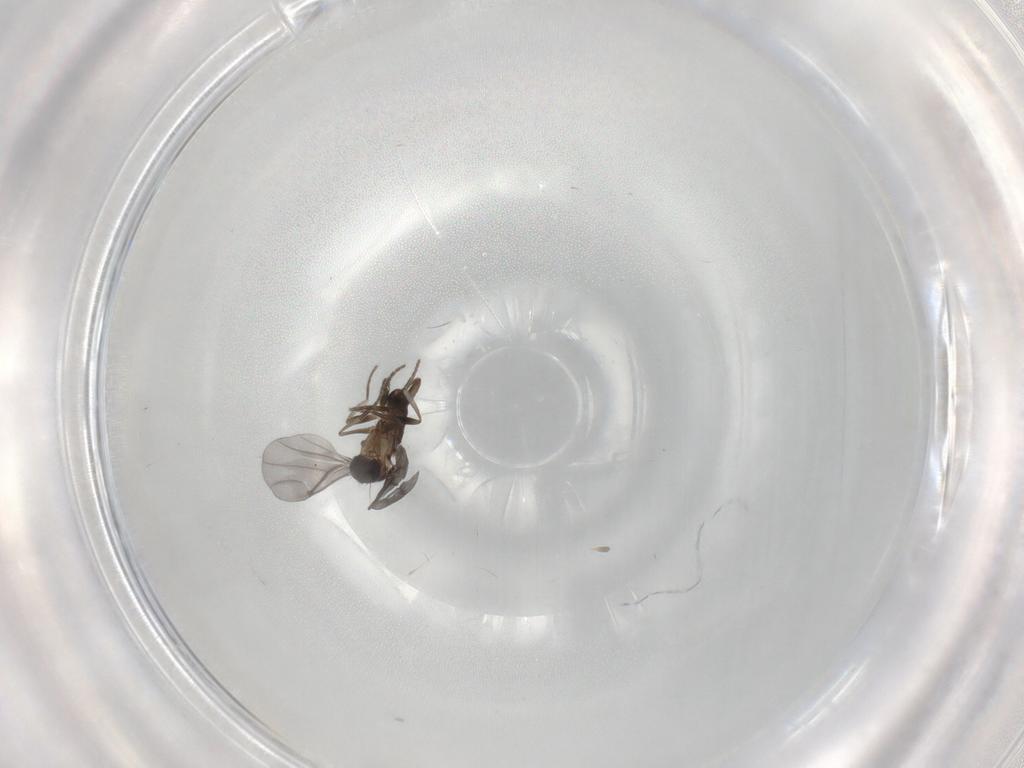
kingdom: Animalia
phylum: Arthropoda
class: Insecta
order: Diptera
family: Phoridae
